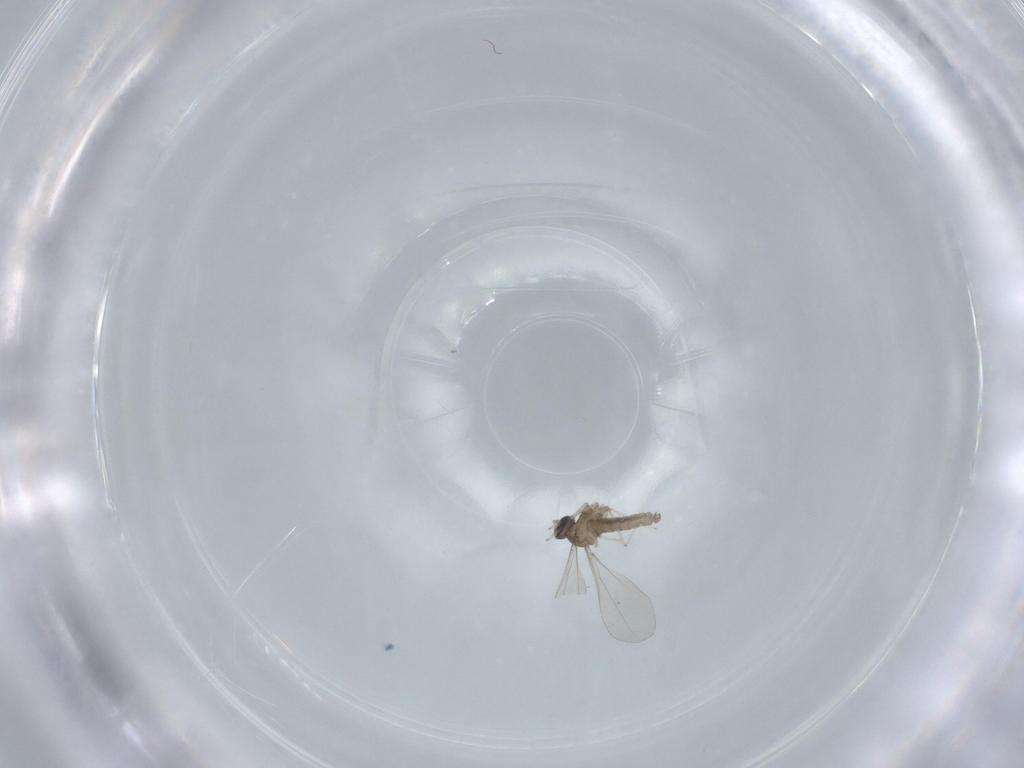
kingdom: Animalia
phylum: Arthropoda
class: Insecta
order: Diptera
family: Cecidomyiidae
